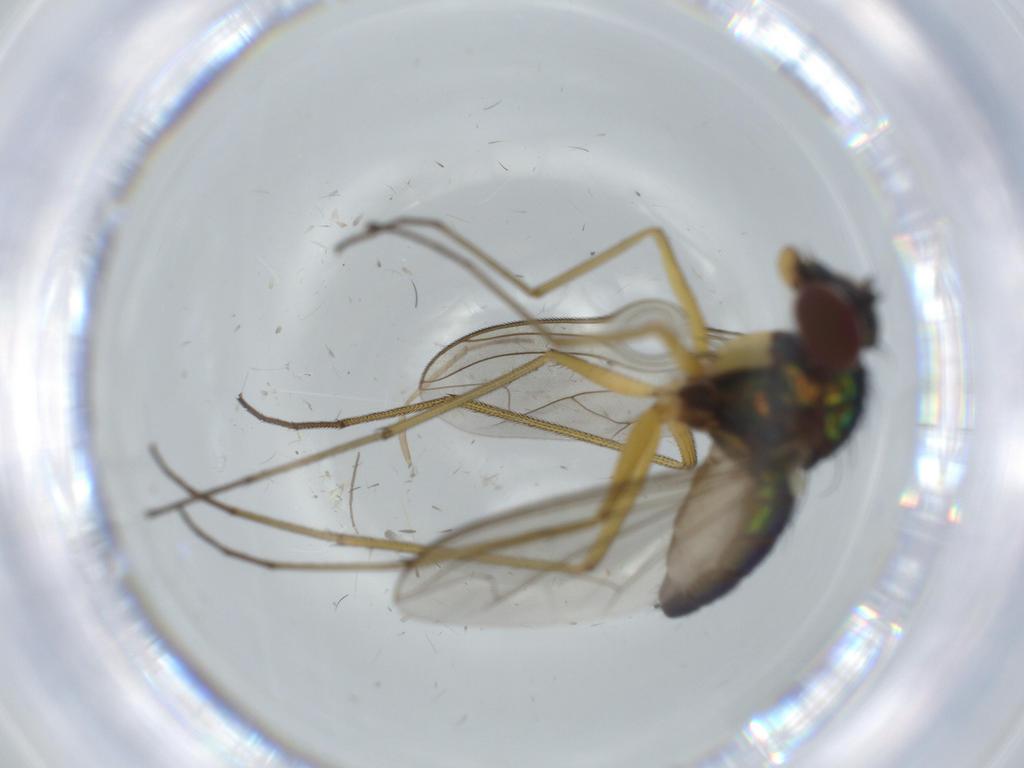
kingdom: Animalia
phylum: Arthropoda
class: Insecta
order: Diptera
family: Dolichopodidae
